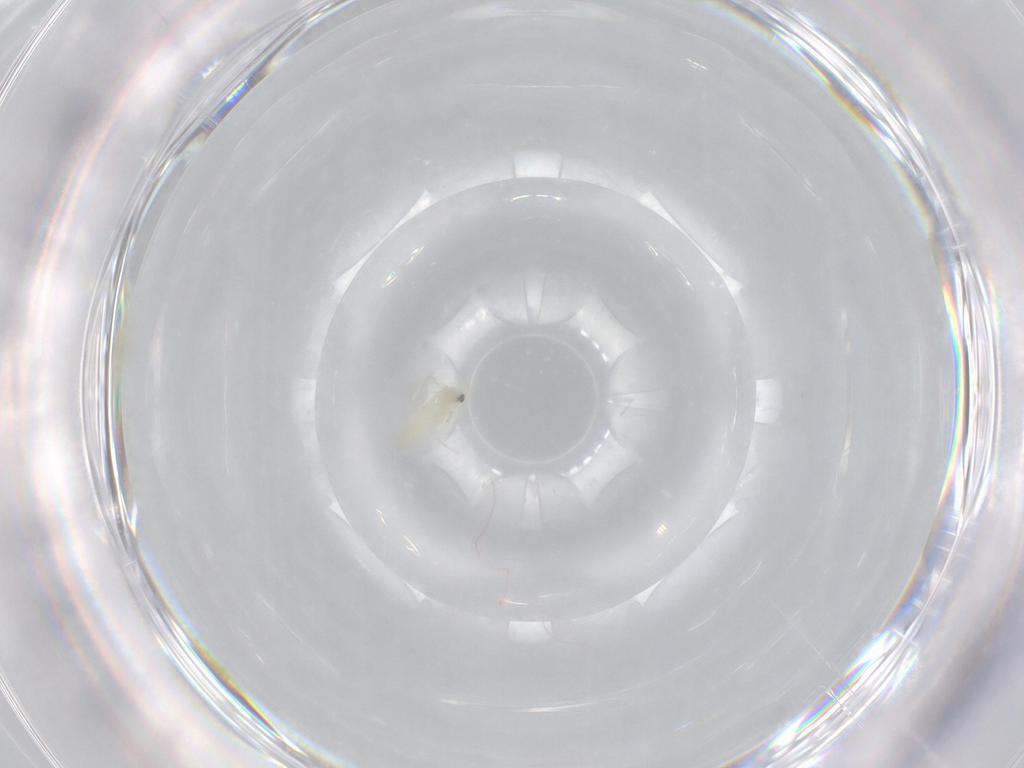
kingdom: Animalia
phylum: Arthropoda
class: Insecta
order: Hemiptera
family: Aleyrodidae
